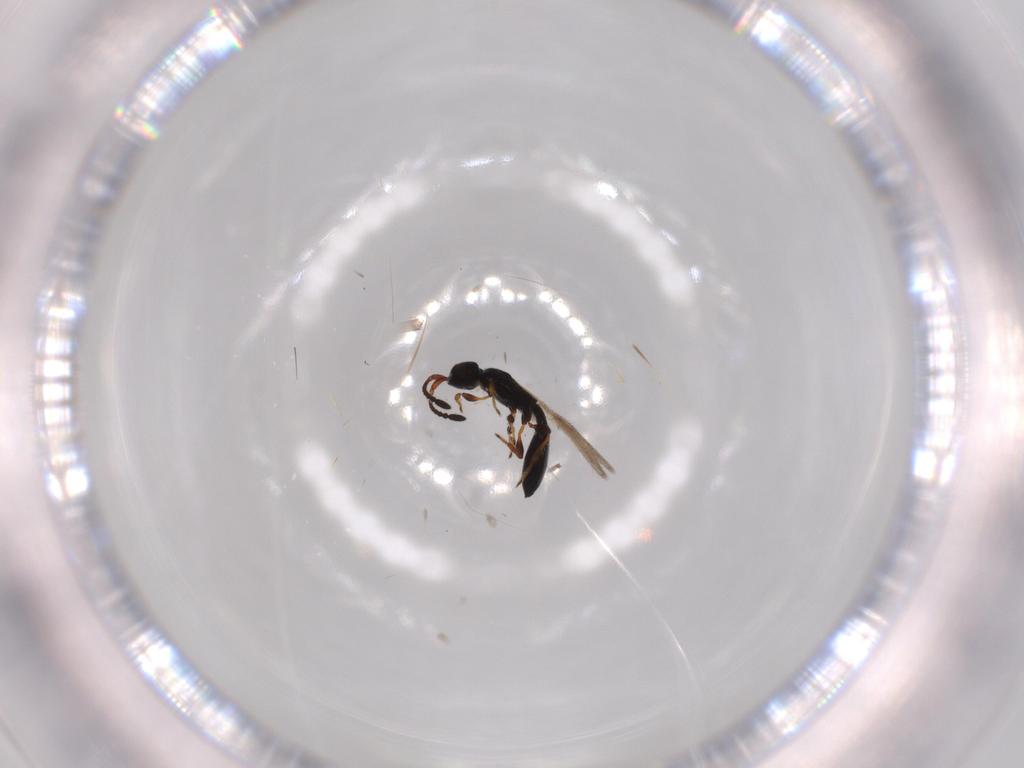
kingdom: Animalia
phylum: Arthropoda
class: Insecta
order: Hymenoptera
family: Diapriidae
